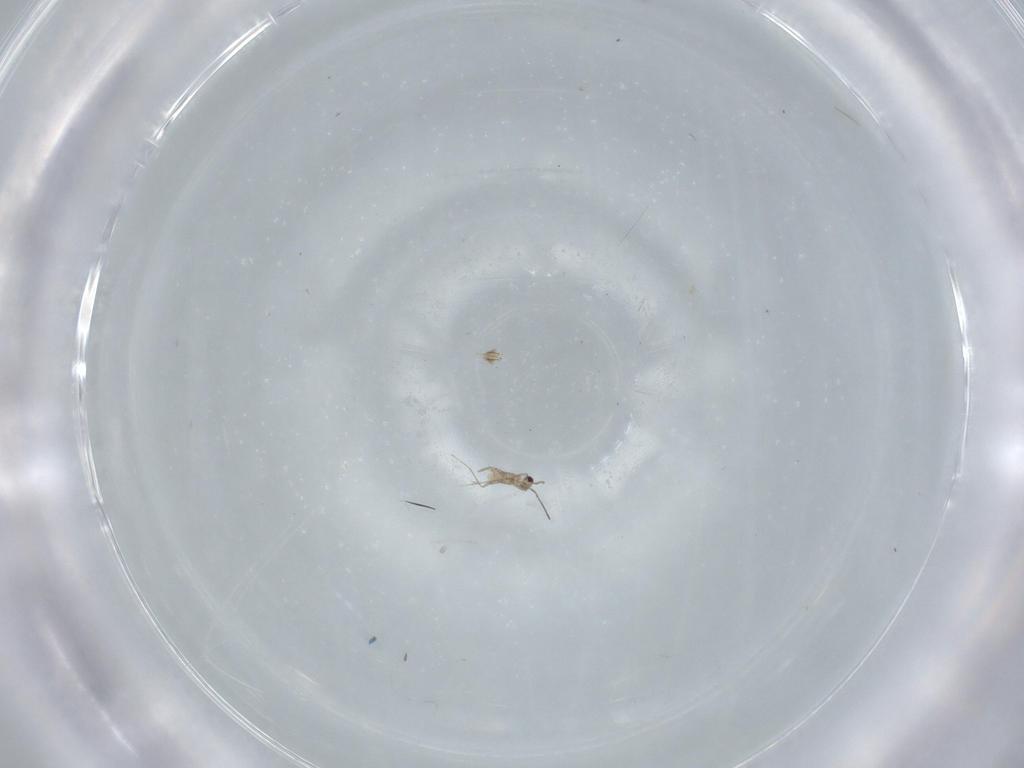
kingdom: Animalia
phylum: Arthropoda
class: Insecta
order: Hymenoptera
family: Mymaridae
